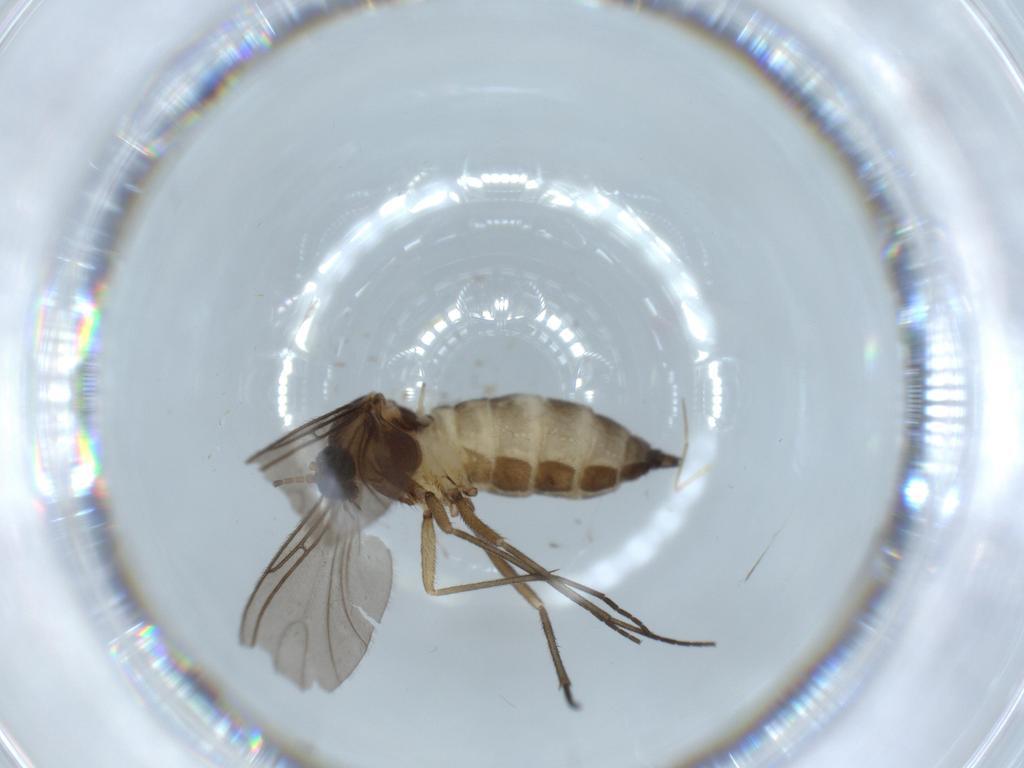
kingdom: Animalia
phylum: Arthropoda
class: Insecta
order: Diptera
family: Sciaridae
